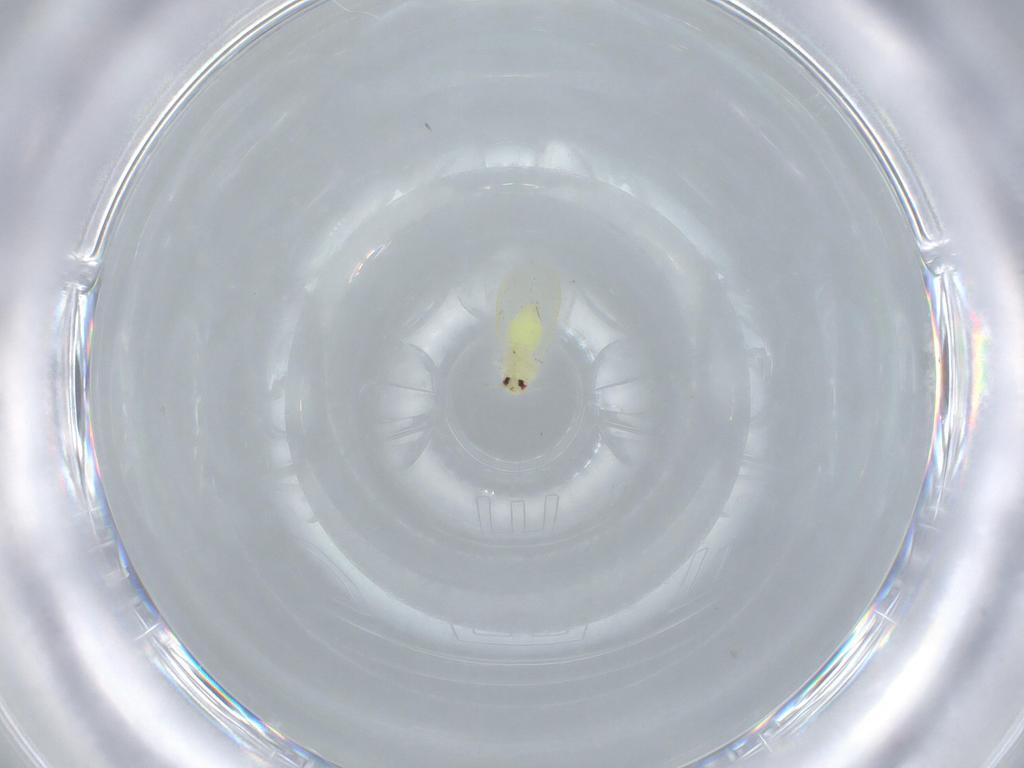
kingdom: Animalia
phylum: Arthropoda
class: Insecta
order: Hemiptera
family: Aleyrodidae
